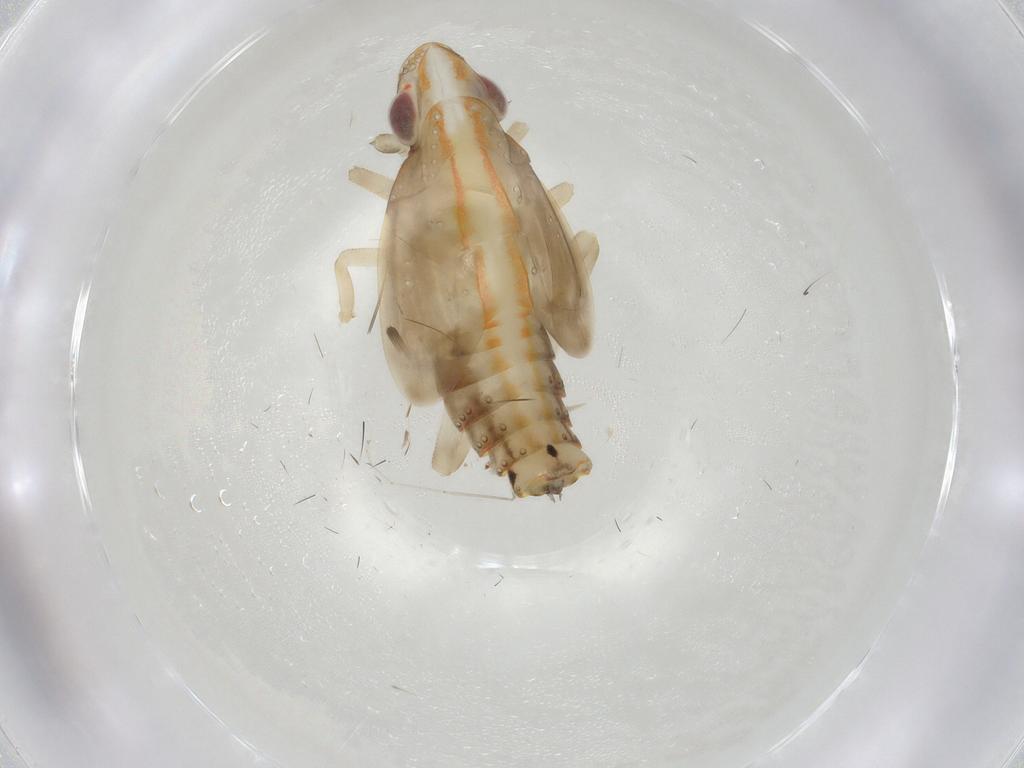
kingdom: Animalia
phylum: Arthropoda
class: Insecta
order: Hemiptera
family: Tropiduchidae
